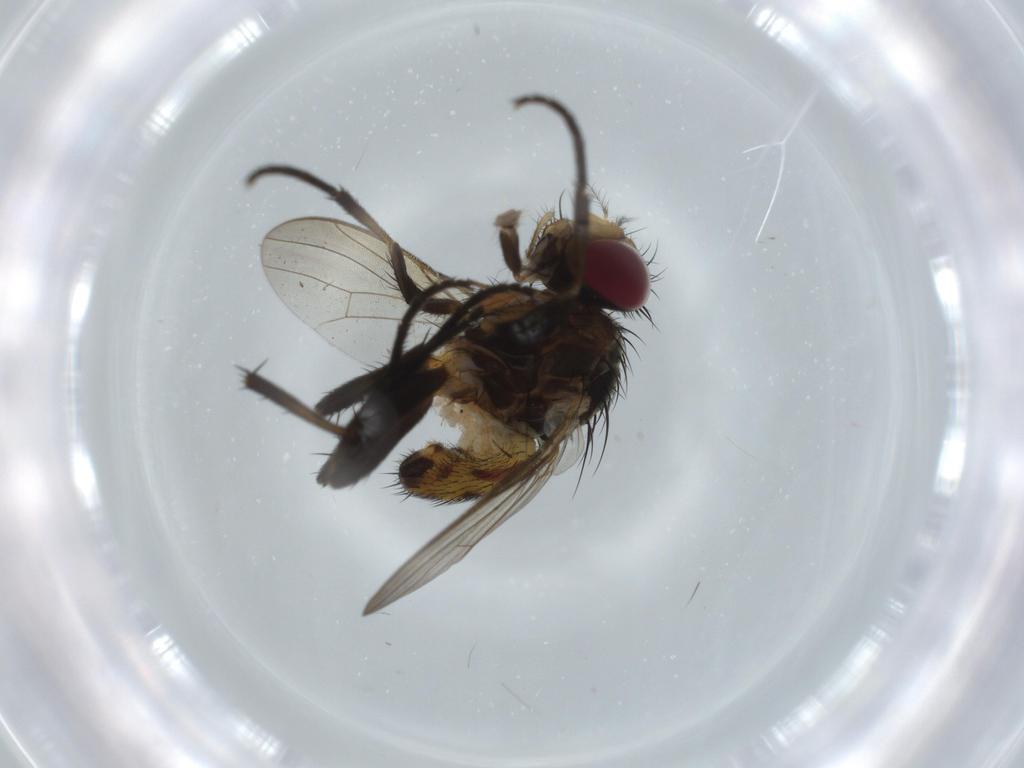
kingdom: Animalia
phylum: Arthropoda
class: Insecta
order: Diptera
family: Anthomyiidae
